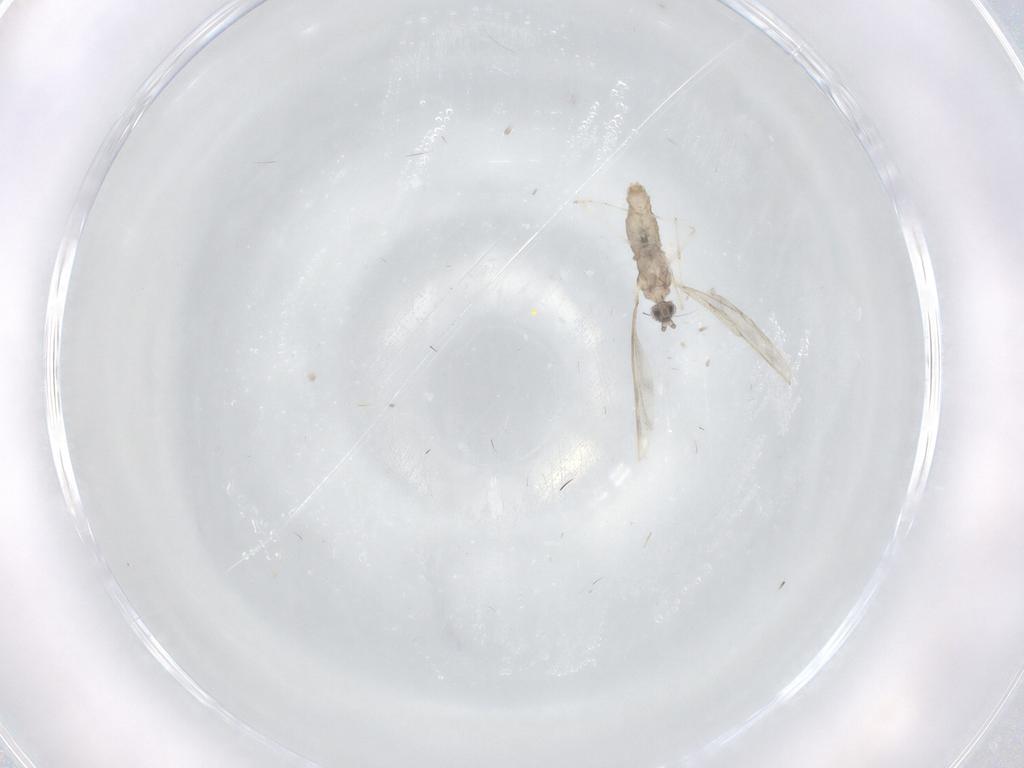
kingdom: Animalia
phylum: Arthropoda
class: Insecta
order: Diptera
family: Cecidomyiidae
